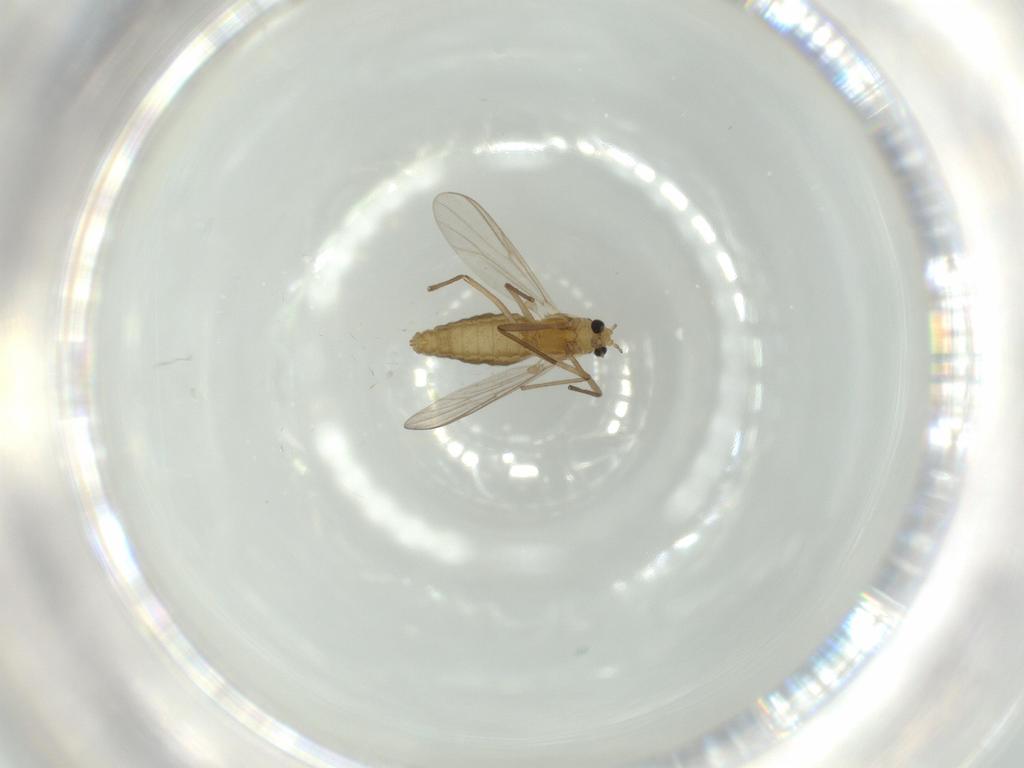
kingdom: Animalia
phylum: Arthropoda
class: Insecta
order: Diptera
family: Chironomidae
